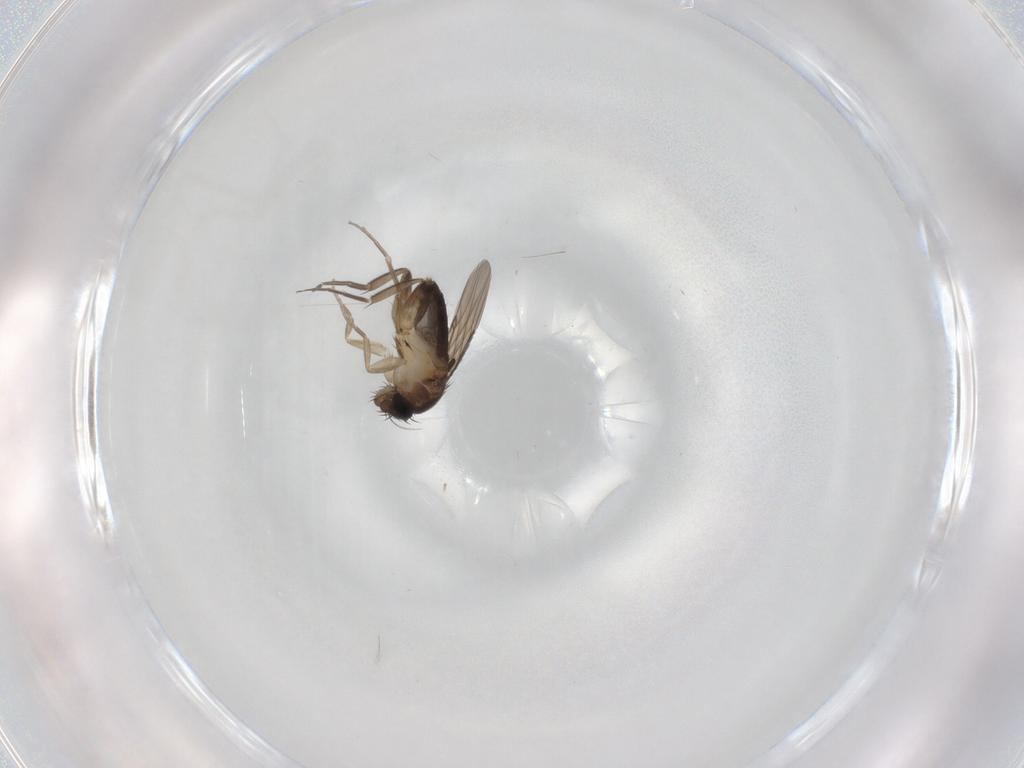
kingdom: Animalia
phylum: Arthropoda
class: Insecta
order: Diptera
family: Phoridae
